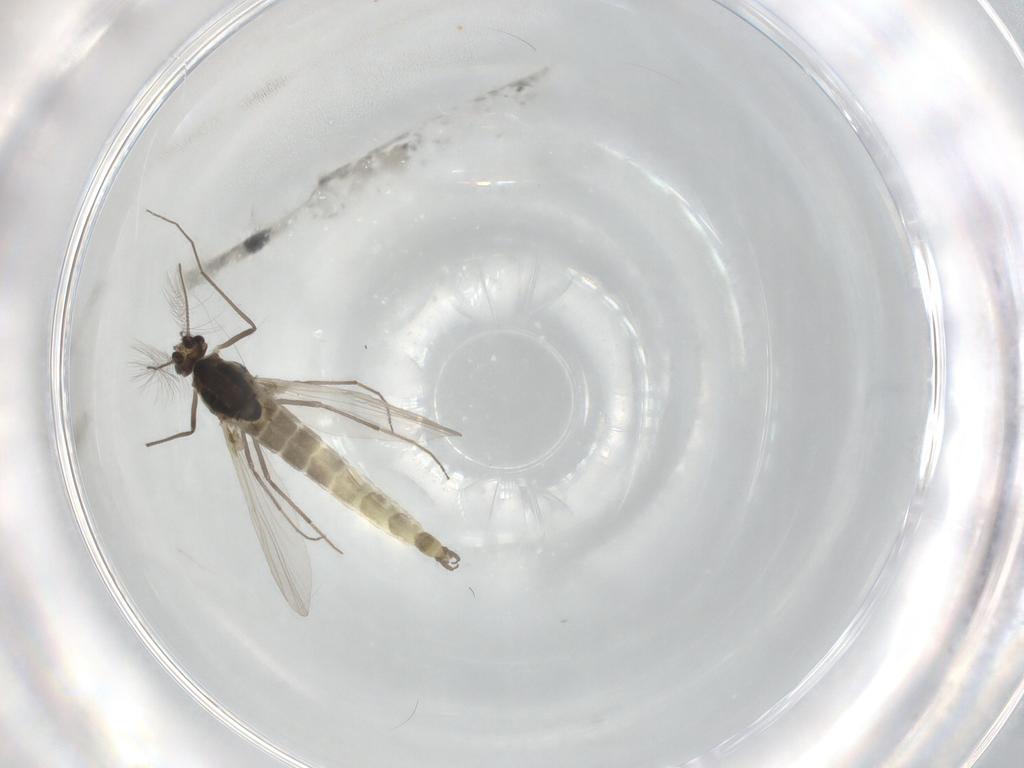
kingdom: Animalia
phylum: Arthropoda
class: Insecta
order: Diptera
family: Chironomidae
